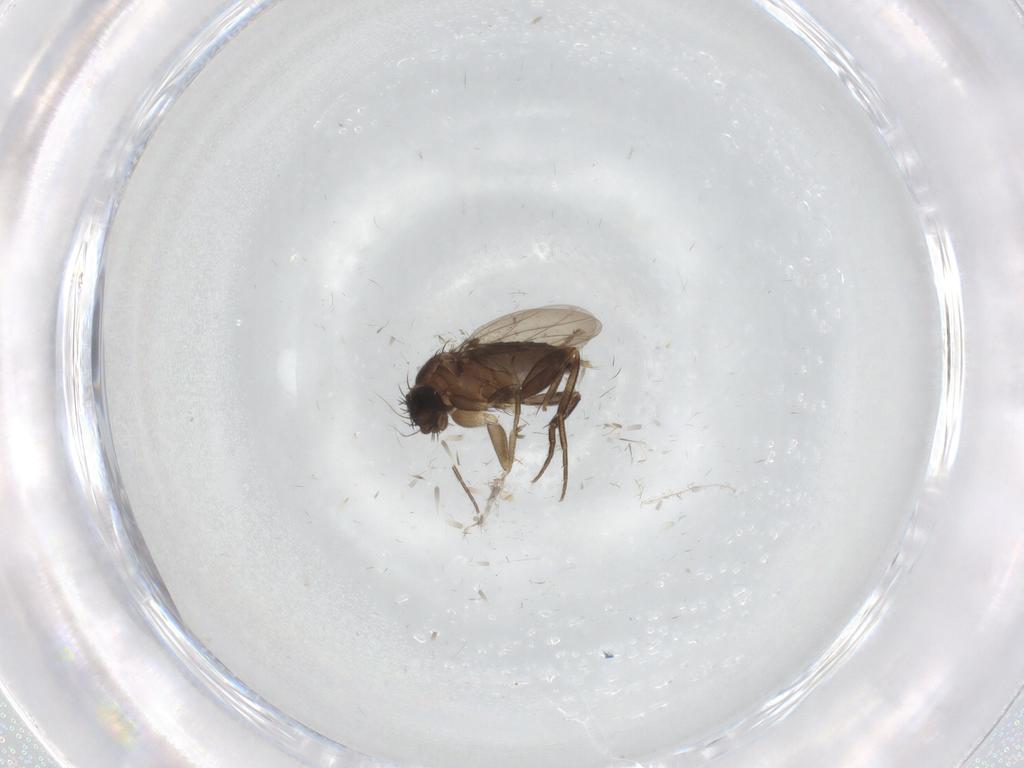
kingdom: Animalia
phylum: Arthropoda
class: Insecta
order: Diptera
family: Phoridae
